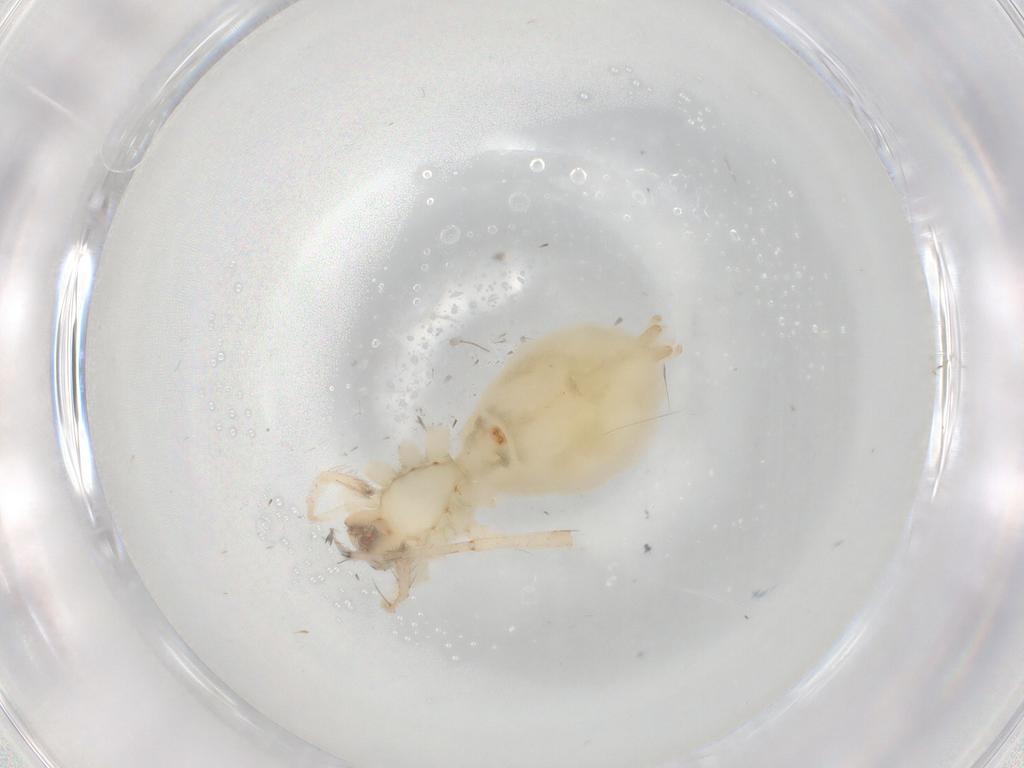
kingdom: Animalia
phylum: Arthropoda
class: Arachnida
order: Araneae
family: Anyphaenidae
